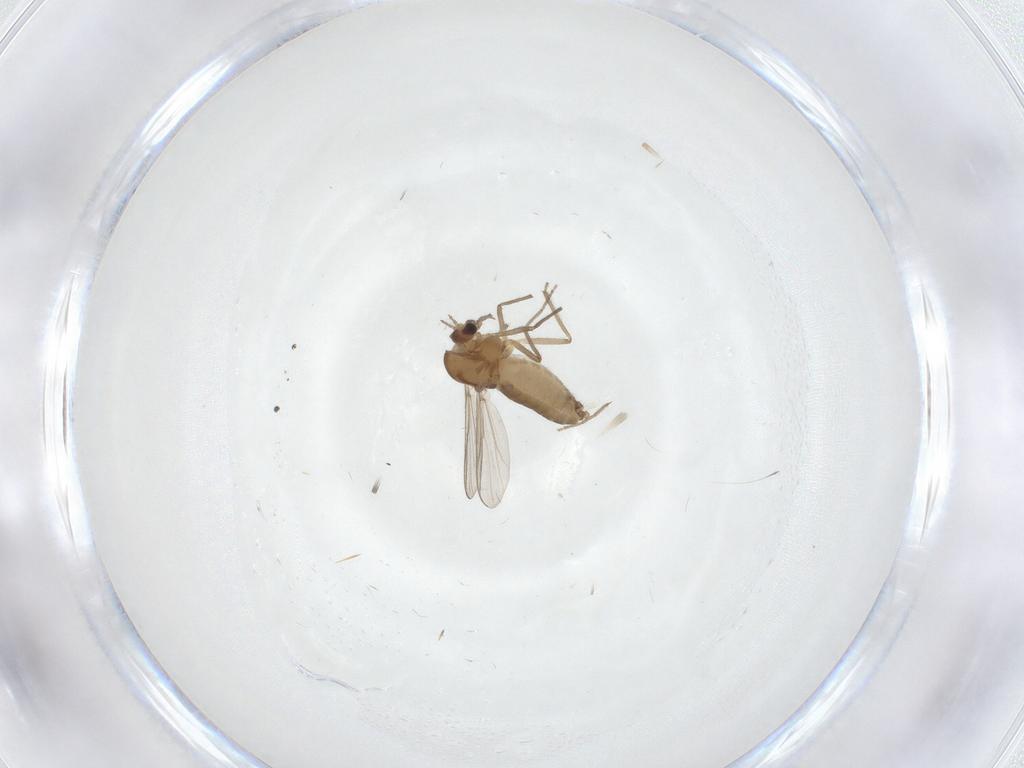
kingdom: Animalia
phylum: Arthropoda
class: Insecta
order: Diptera
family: Chironomidae
